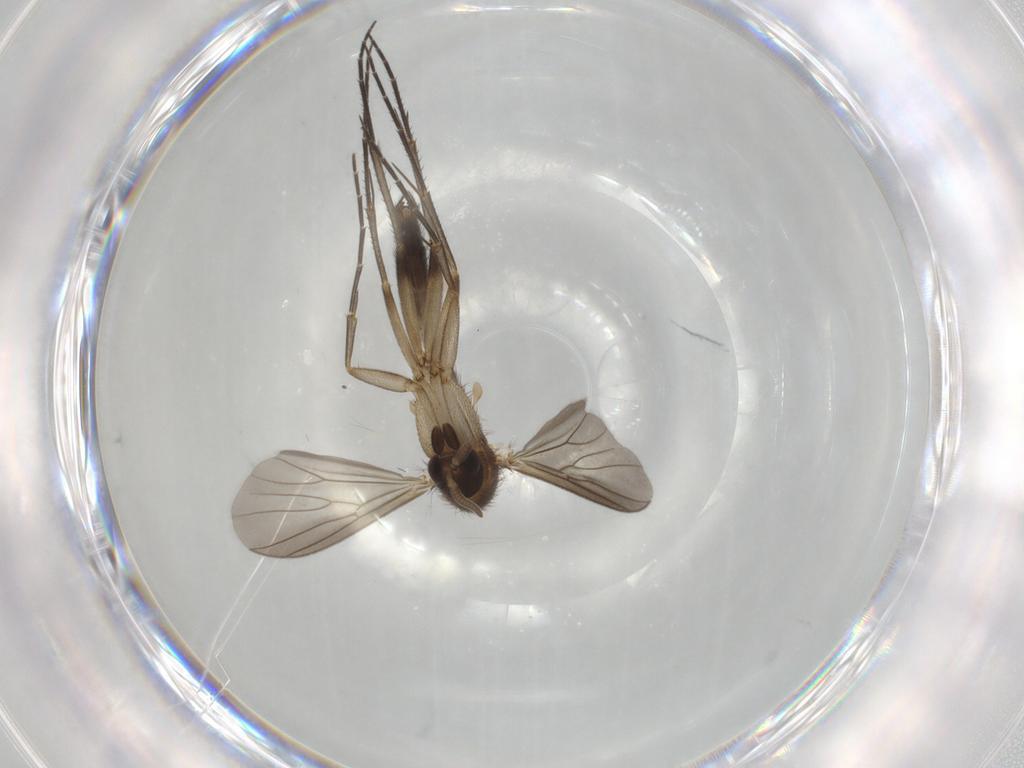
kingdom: Animalia
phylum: Arthropoda
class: Insecta
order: Diptera
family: Mycetophilidae
